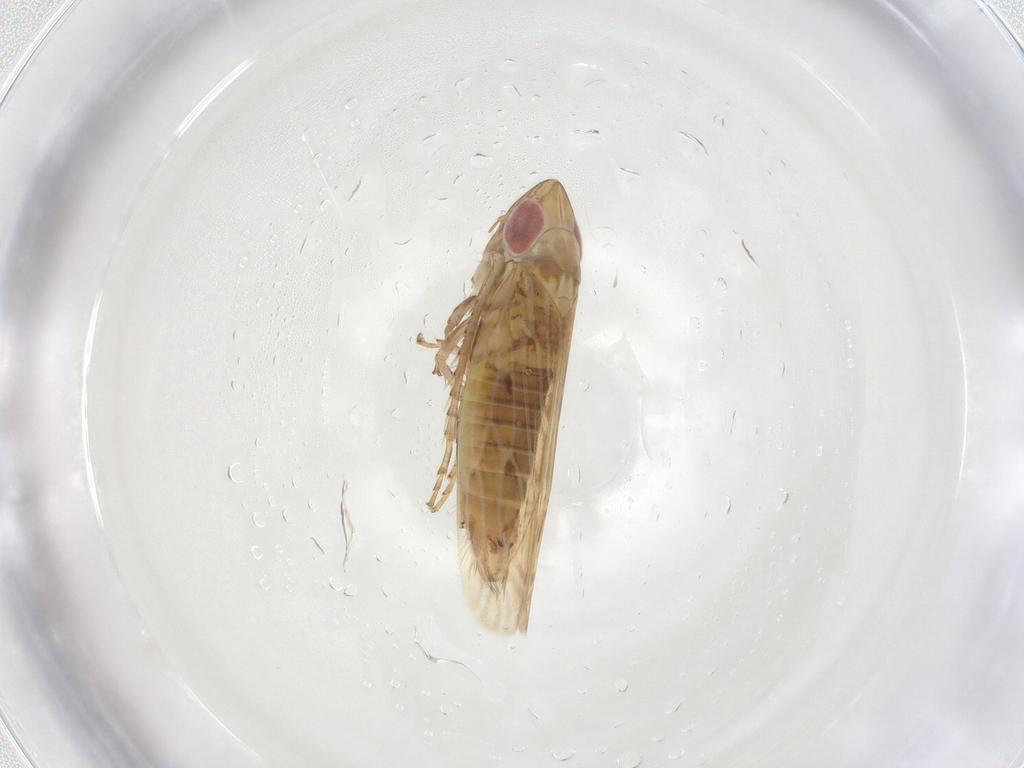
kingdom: Animalia
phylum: Arthropoda
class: Insecta
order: Hemiptera
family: Cicadellidae
